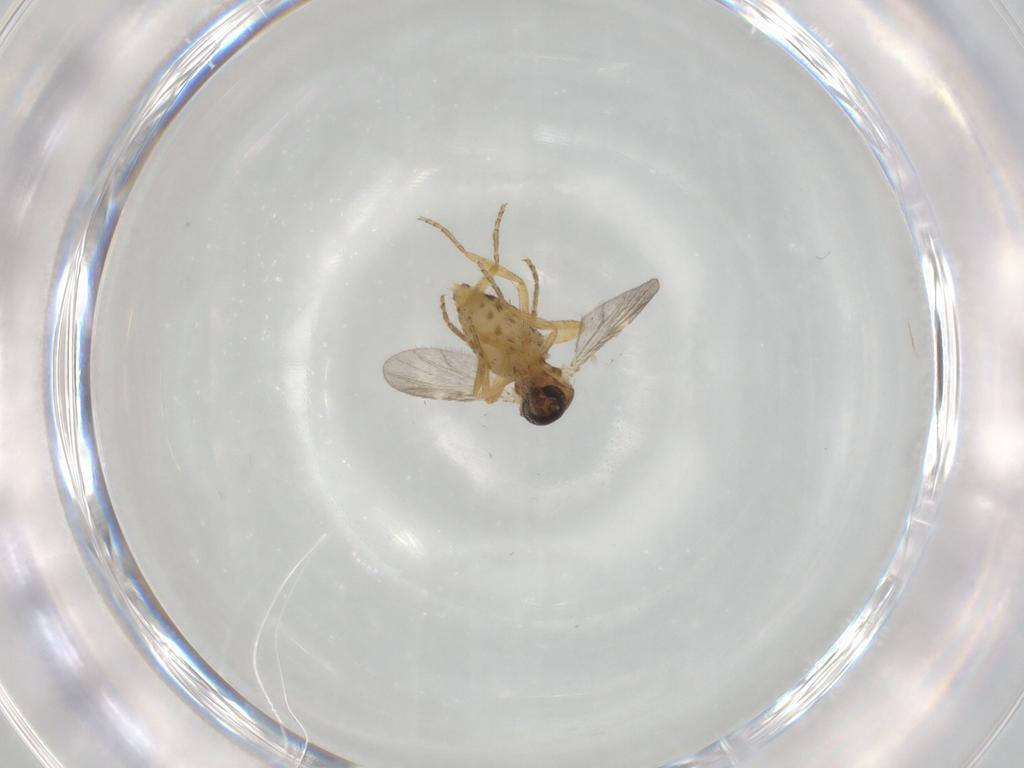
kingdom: Animalia
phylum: Arthropoda
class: Insecta
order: Diptera
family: Ceratopogonidae
